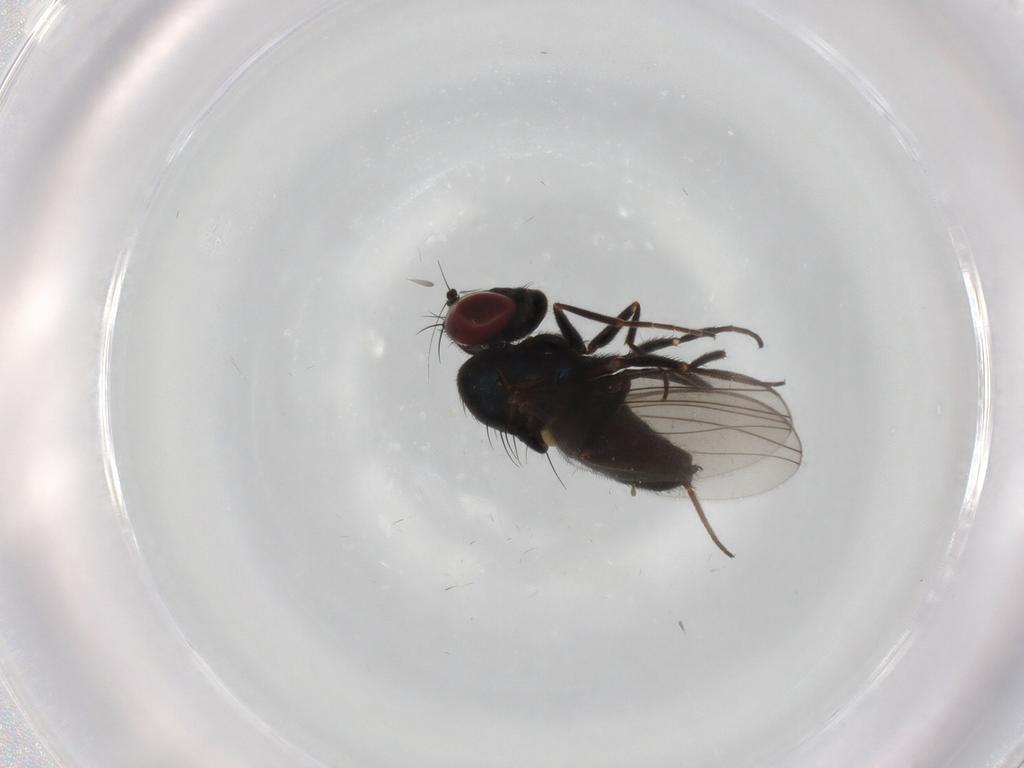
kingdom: Animalia
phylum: Arthropoda
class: Insecta
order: Diptera
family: Dolichopodidae
